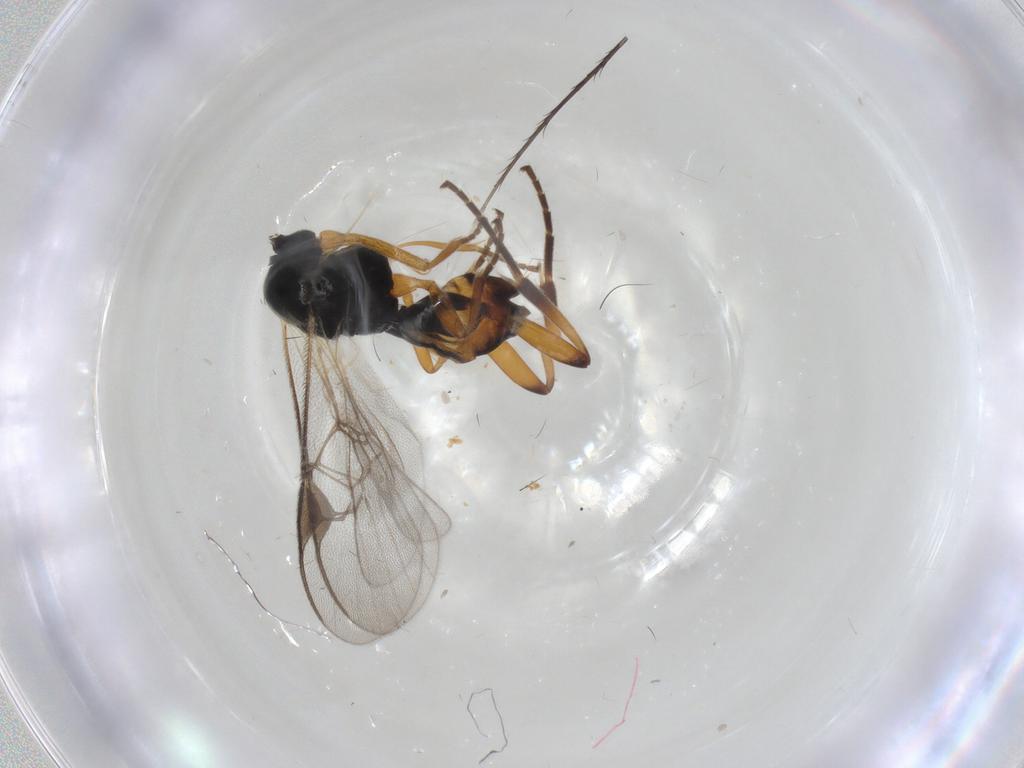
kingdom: Animalia
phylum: Arthropoda
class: Insecta
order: Hymenoptera
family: Braconidae
